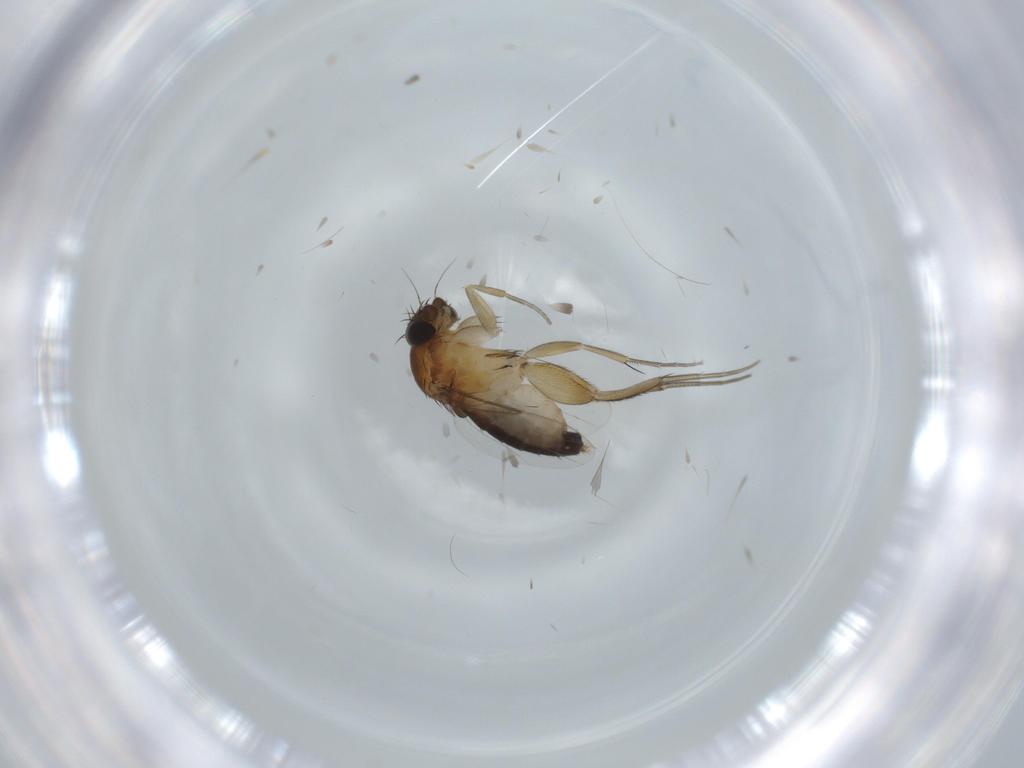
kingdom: Animalia
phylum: Arthropoda
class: Insecta
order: Diptera
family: Phoridae
